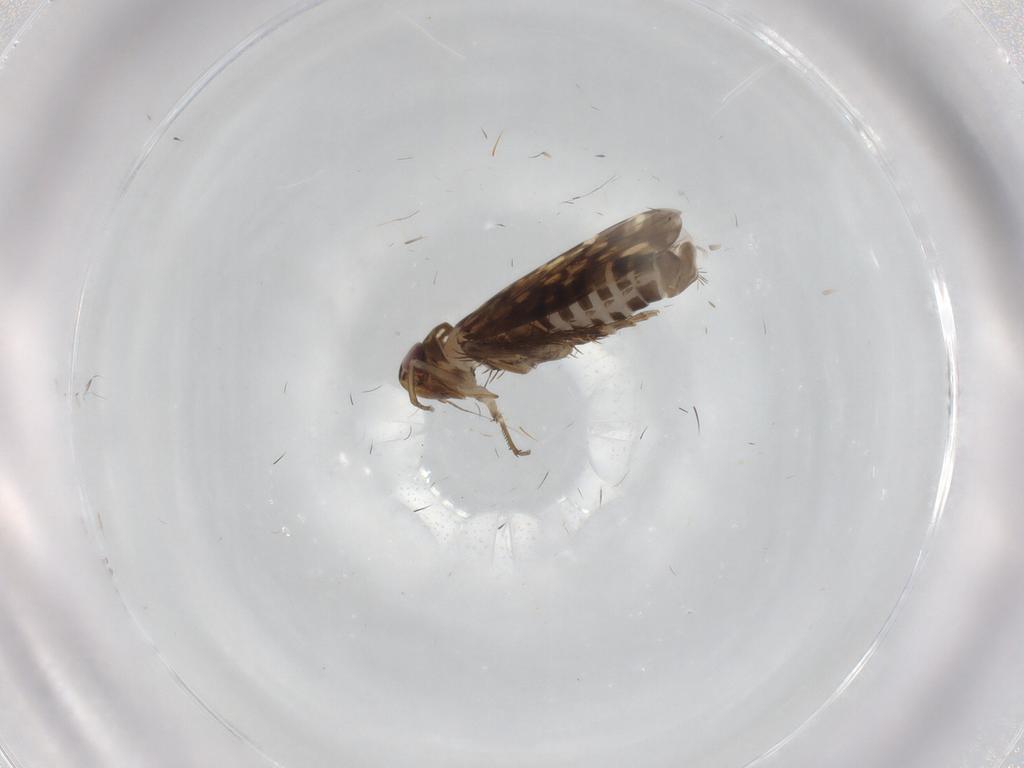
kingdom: Animalia
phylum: Arthropoda
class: Insecta
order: Hemiptera
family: Cicadellidae
